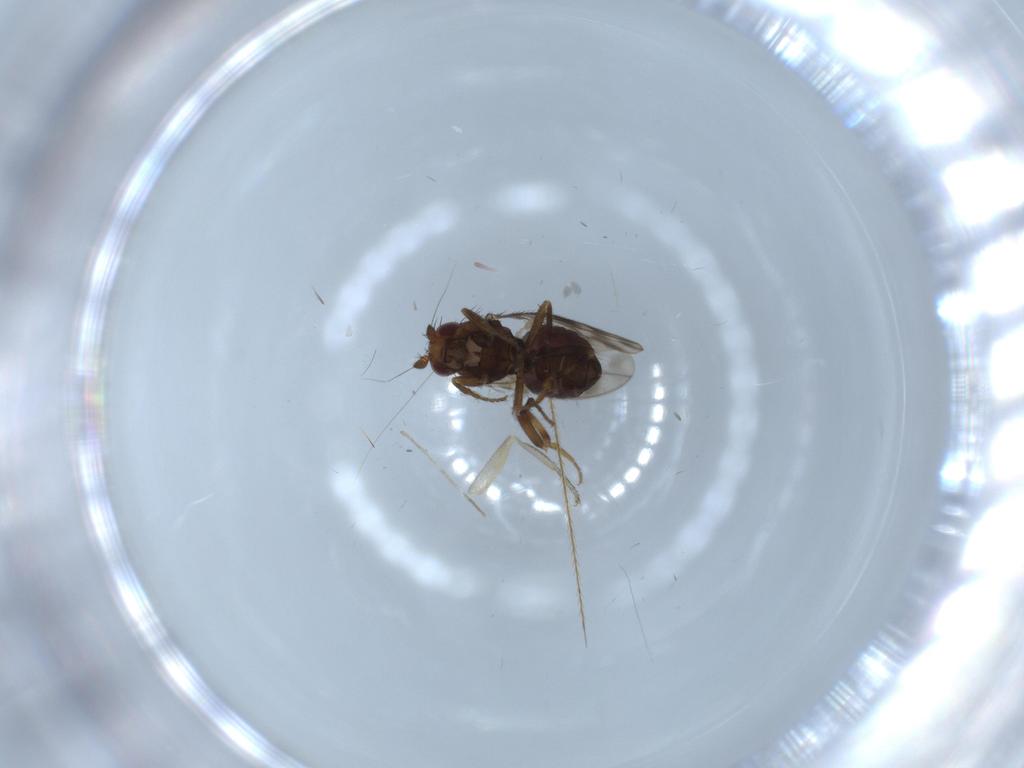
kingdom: Animalia
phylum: Arthropoda
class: Insecta
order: Diptera
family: Sphaeroceridae
